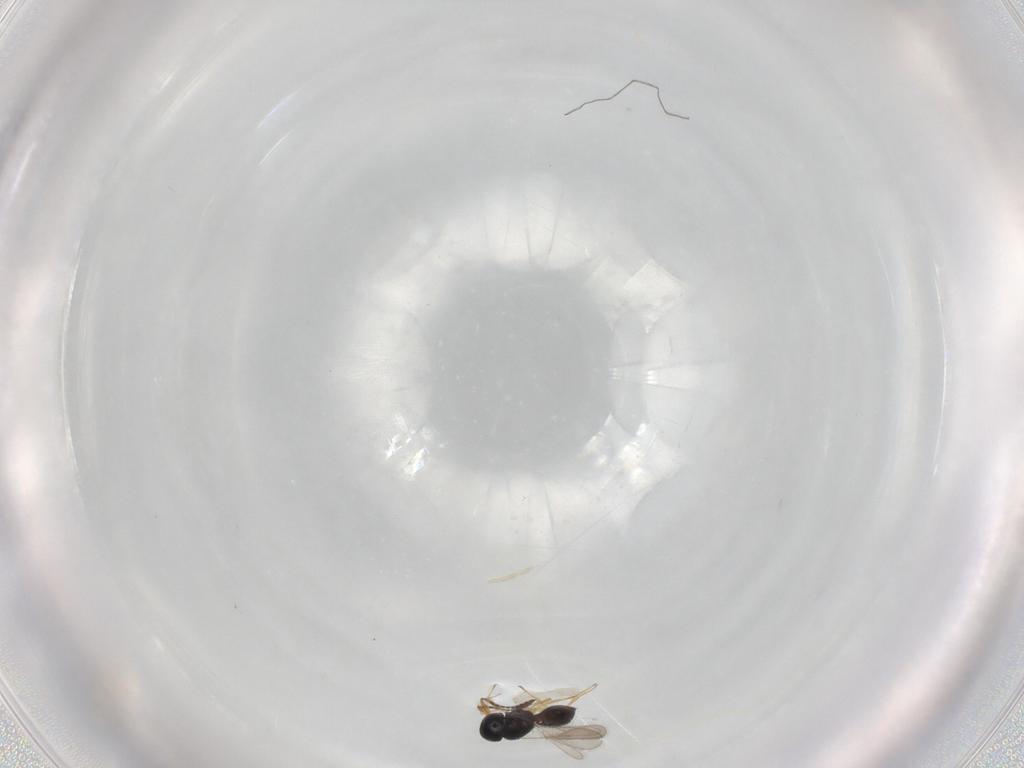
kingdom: Animalia
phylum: Arthropoda
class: Insecta
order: Hymenoptera
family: Scelionidae
